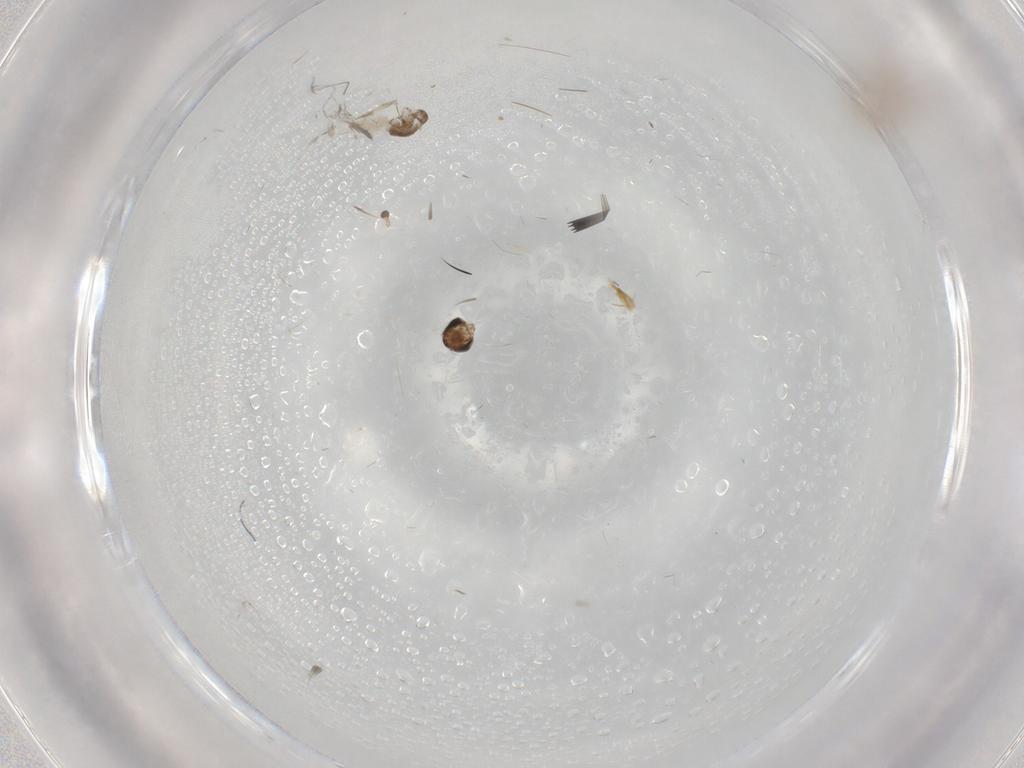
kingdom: Animalia
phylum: Arthropoda
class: Insecta
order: Diptera
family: Phoridae
